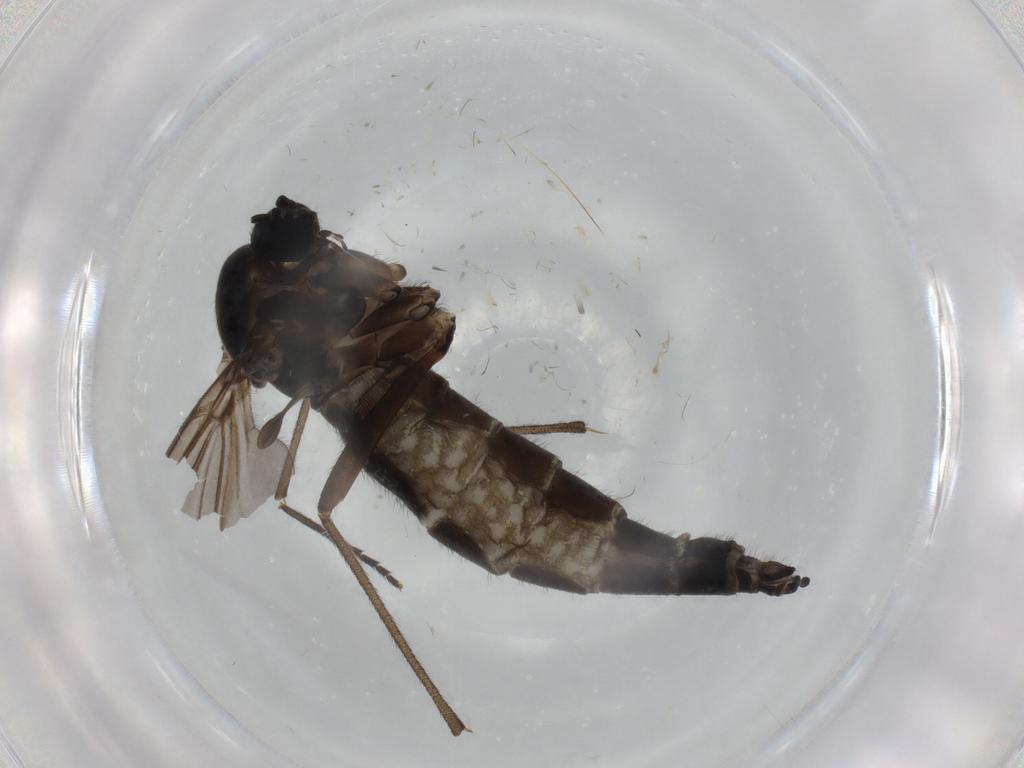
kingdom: Animalia
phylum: Arthropoda
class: Insecta
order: Diptera
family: Sciaridae
